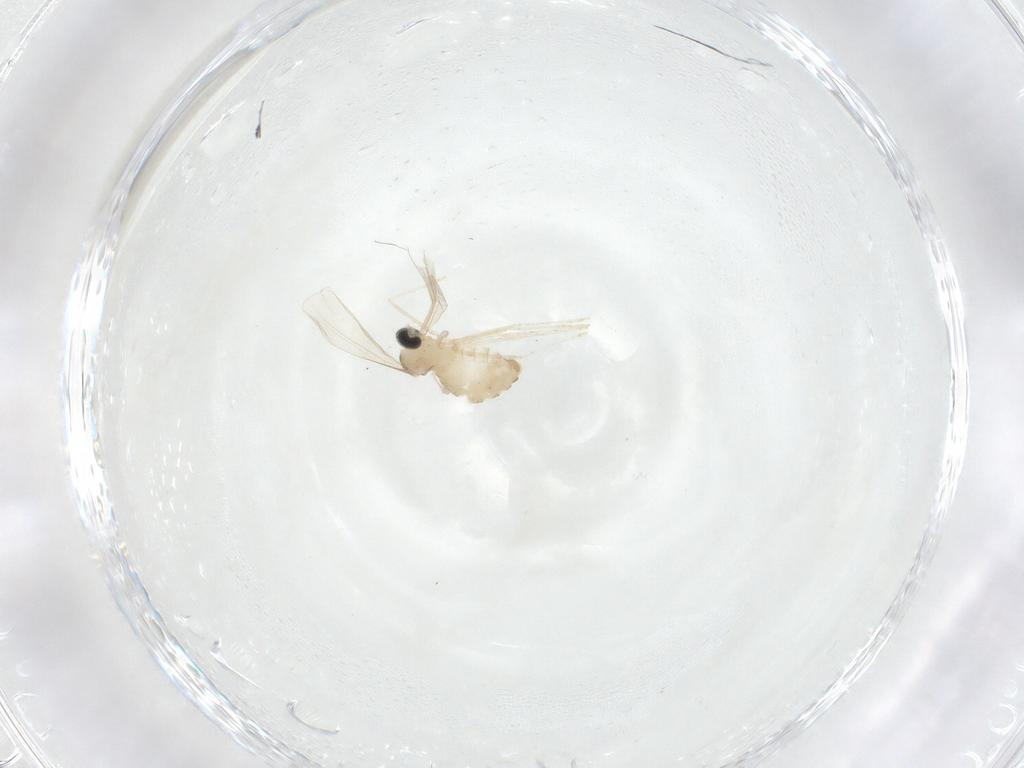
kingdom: Animalia
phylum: Arthropoda
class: Insecta
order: Diptera
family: Cecidomyiidae
